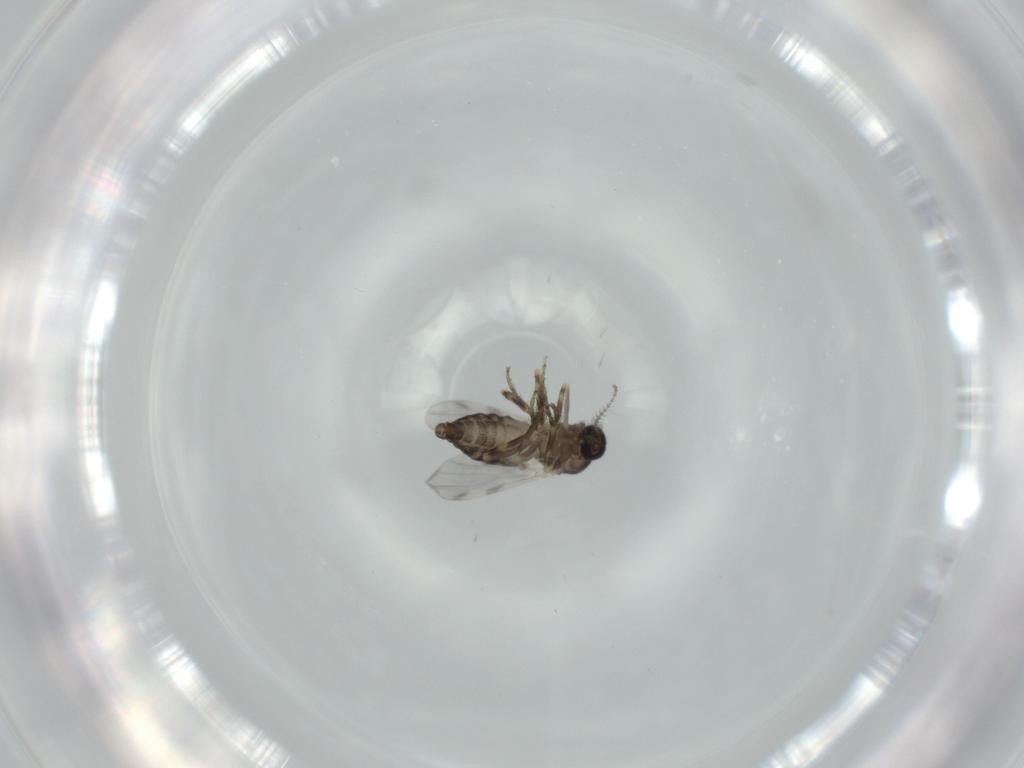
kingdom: Animalia
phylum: Arthropoda
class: Insecta
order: Diptera
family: Ceratopogonidae
